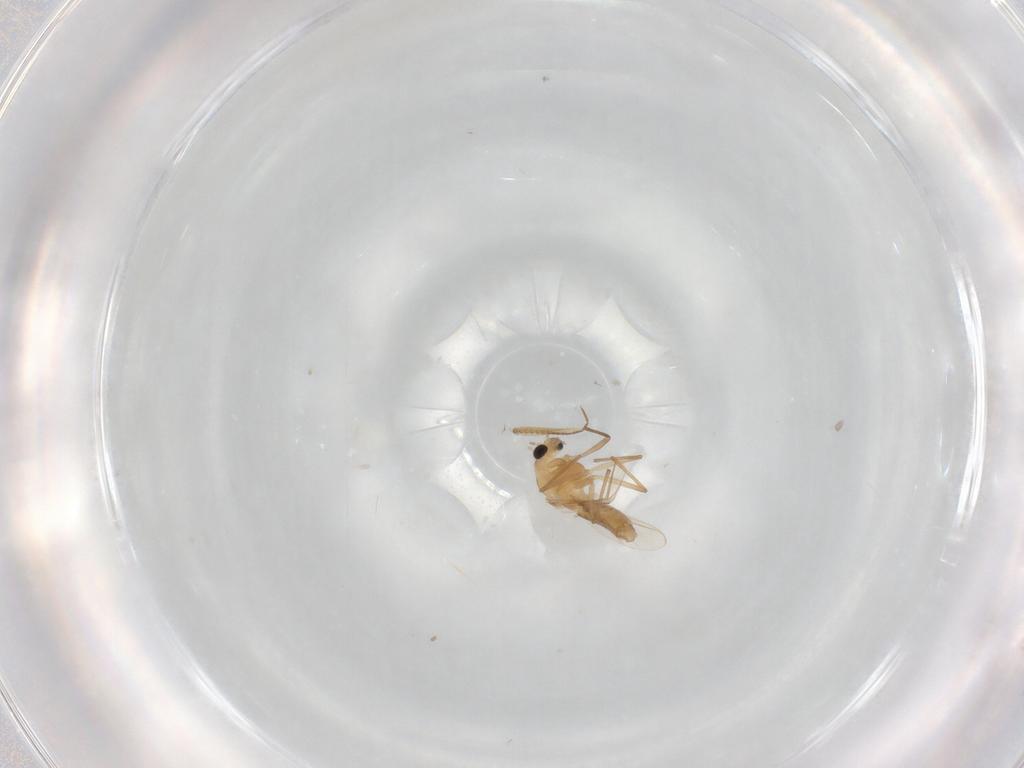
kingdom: Animalia
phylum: Arthropoda
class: Insecta
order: Diptera
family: Chironomidae
